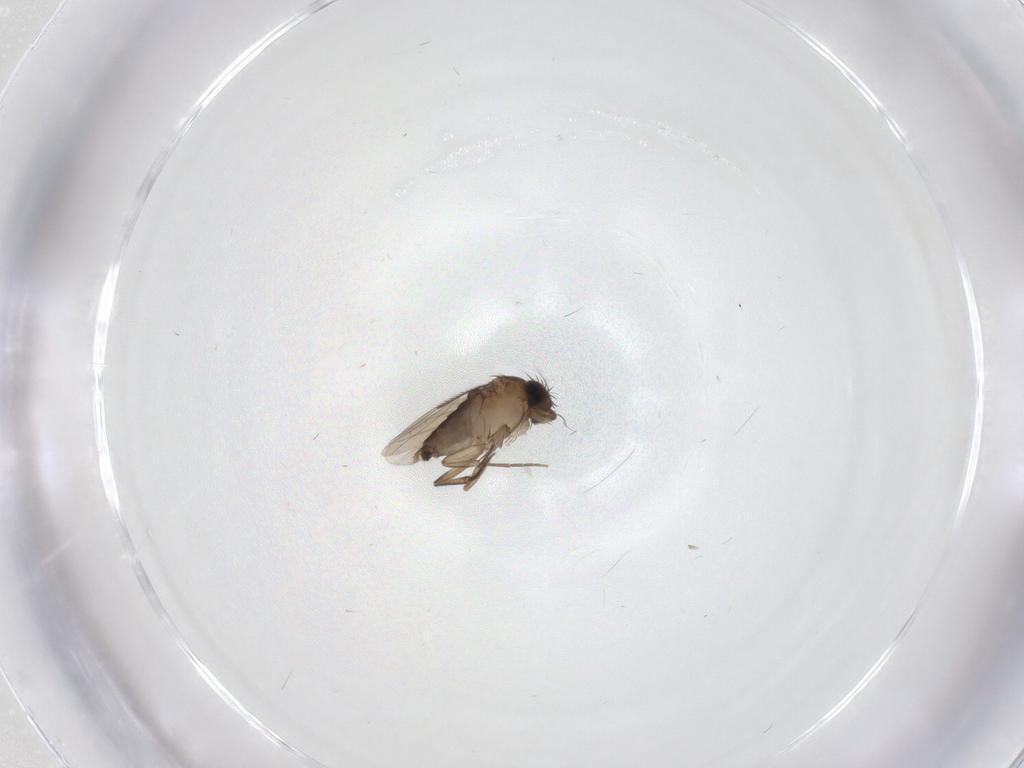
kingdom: Animalia
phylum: Arthropoda
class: Insecta
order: Diptera
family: Phoridae
